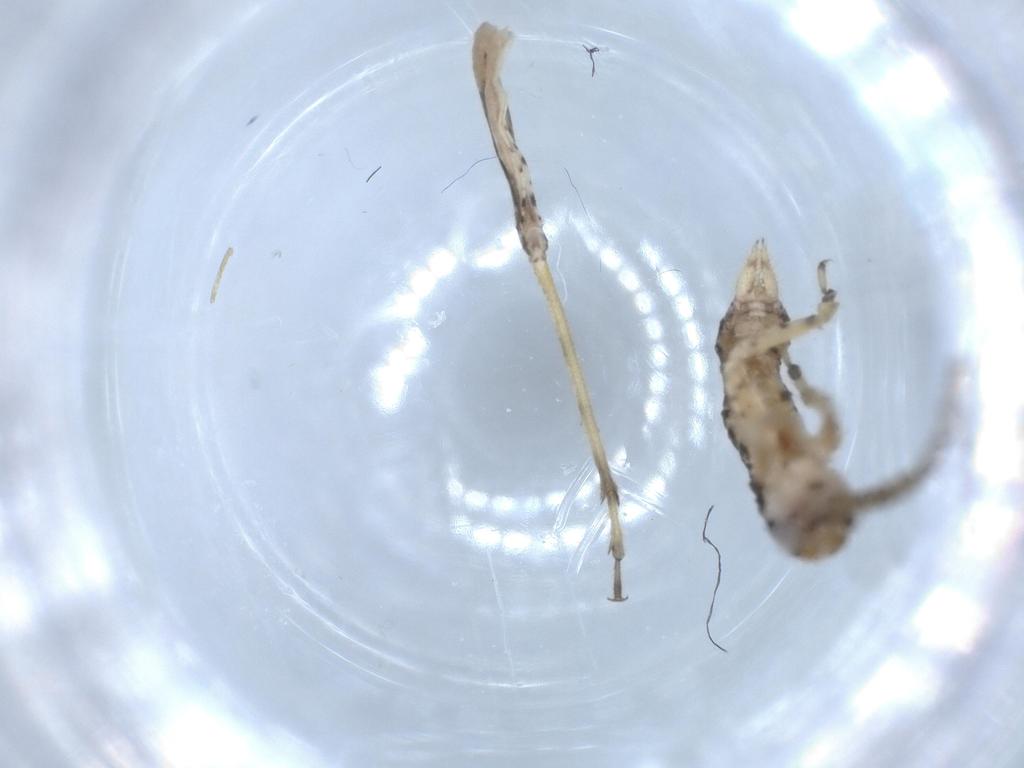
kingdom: Animalia
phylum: Arthropoda
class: Insecta
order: Orthoptera
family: Gryllidae
